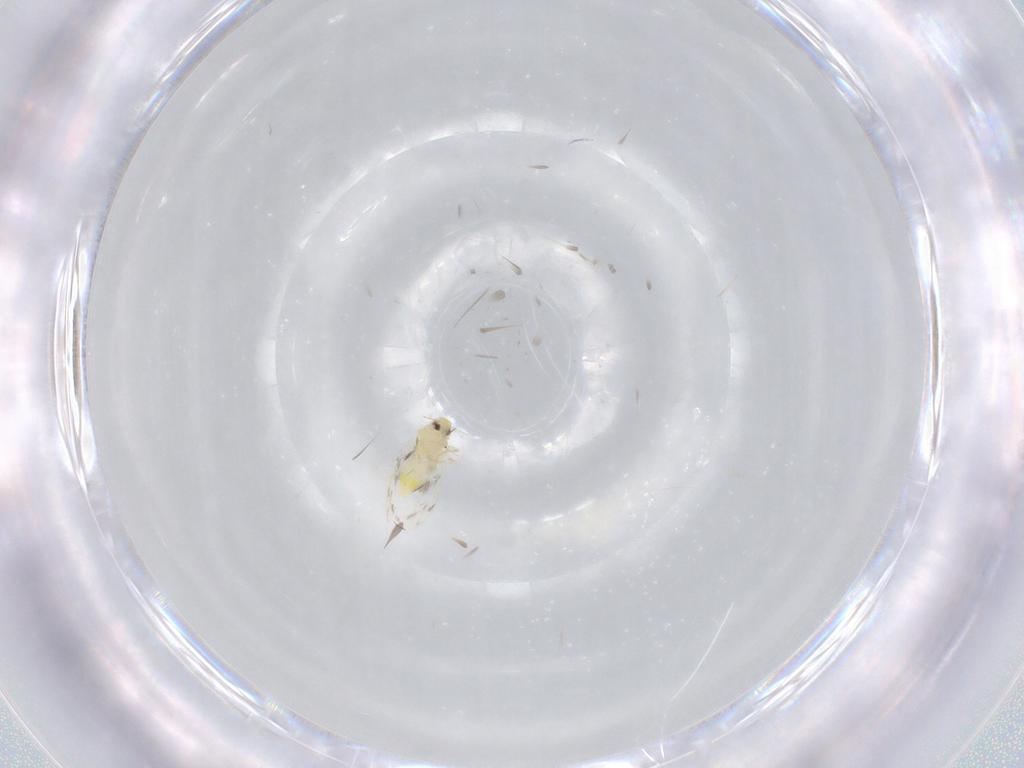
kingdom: Animalia
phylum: Arthropoda
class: Insecta
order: Hemiptera
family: Aleyrodidae
